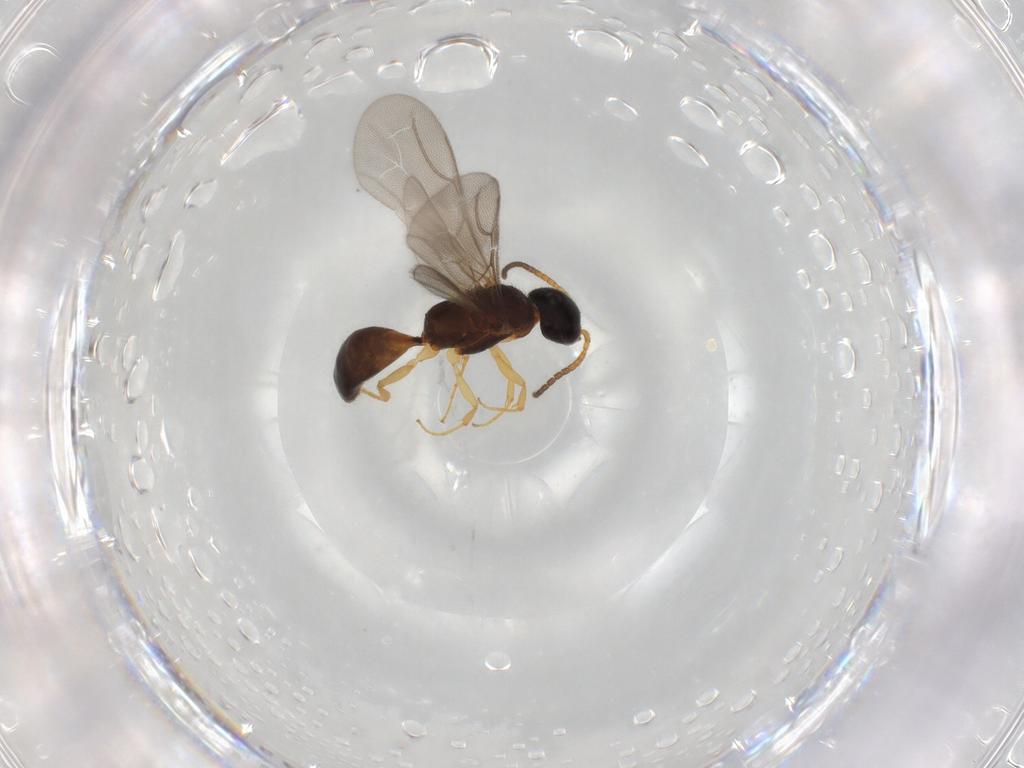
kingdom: Animalia
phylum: Arthropoda
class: Insecta
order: Hymenoptera
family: Bethylidae
